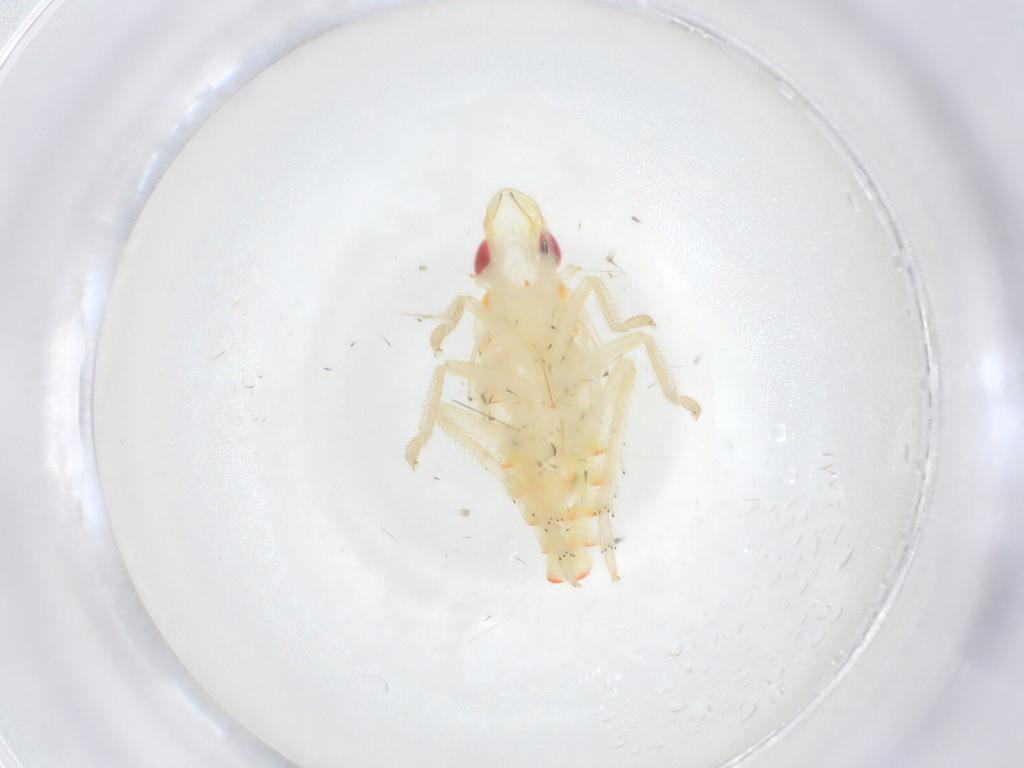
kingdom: Animalia
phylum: Arthropoda
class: Insecta
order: Hemiptera
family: Tropiduchidae
